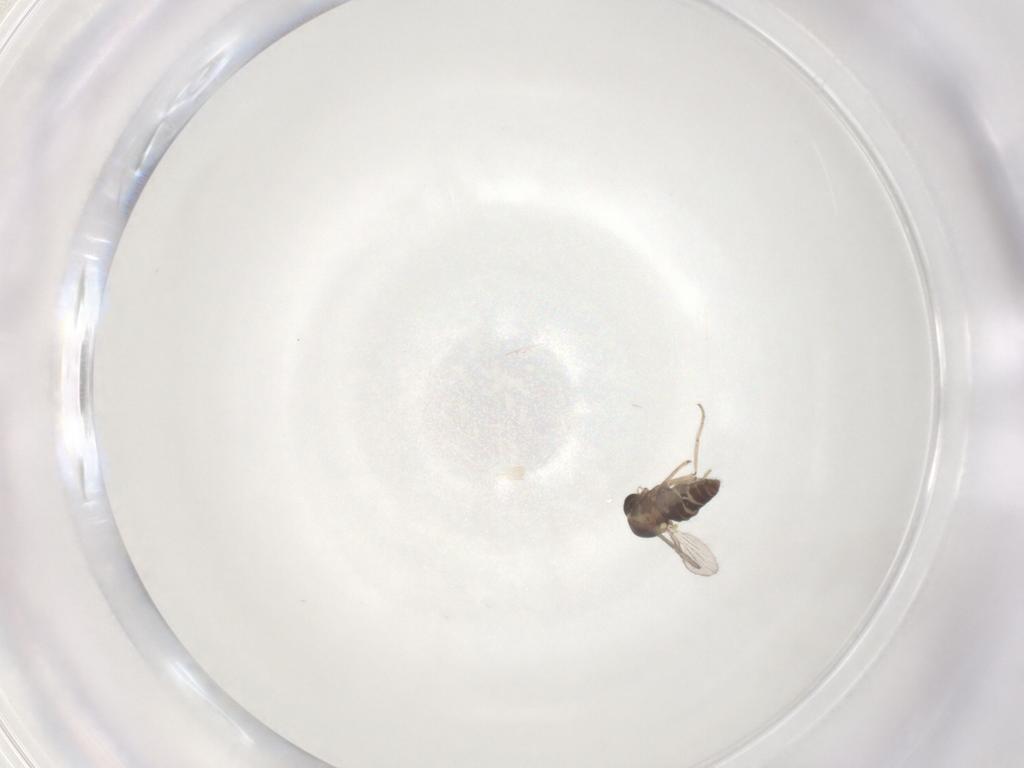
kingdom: Animalia
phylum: Arthropoda
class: Insecta
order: Diptera
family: Ceratopogonidae
